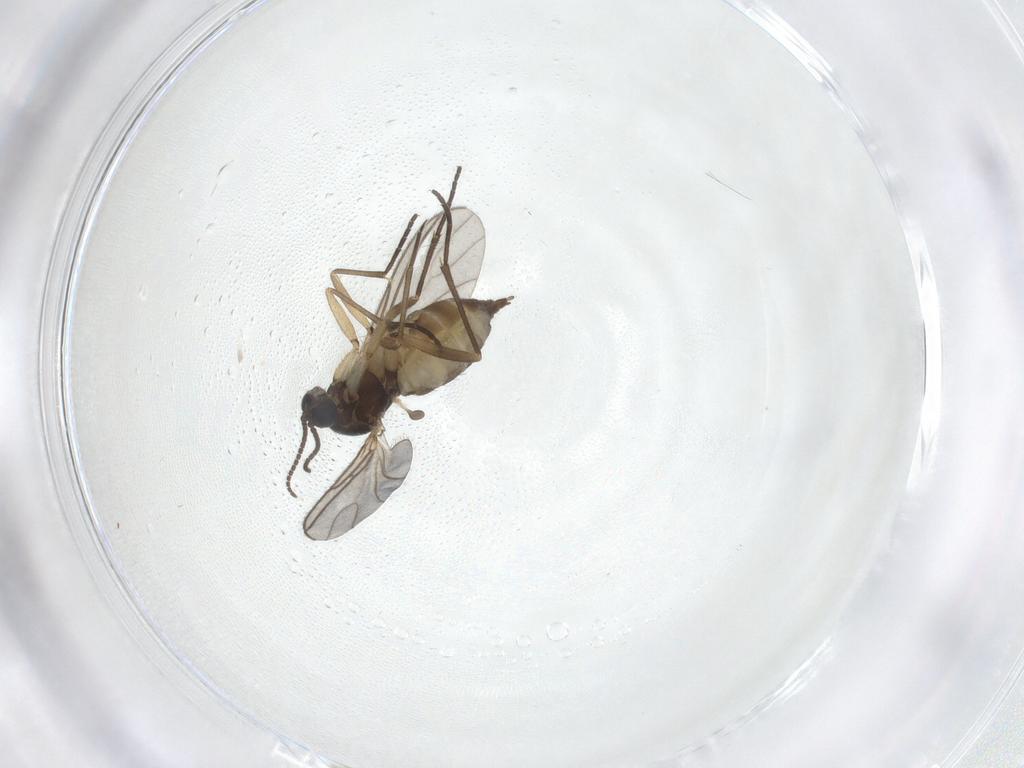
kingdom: Animalia
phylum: Arthropoda
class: Insecta
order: Diptera
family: Sciaridae
